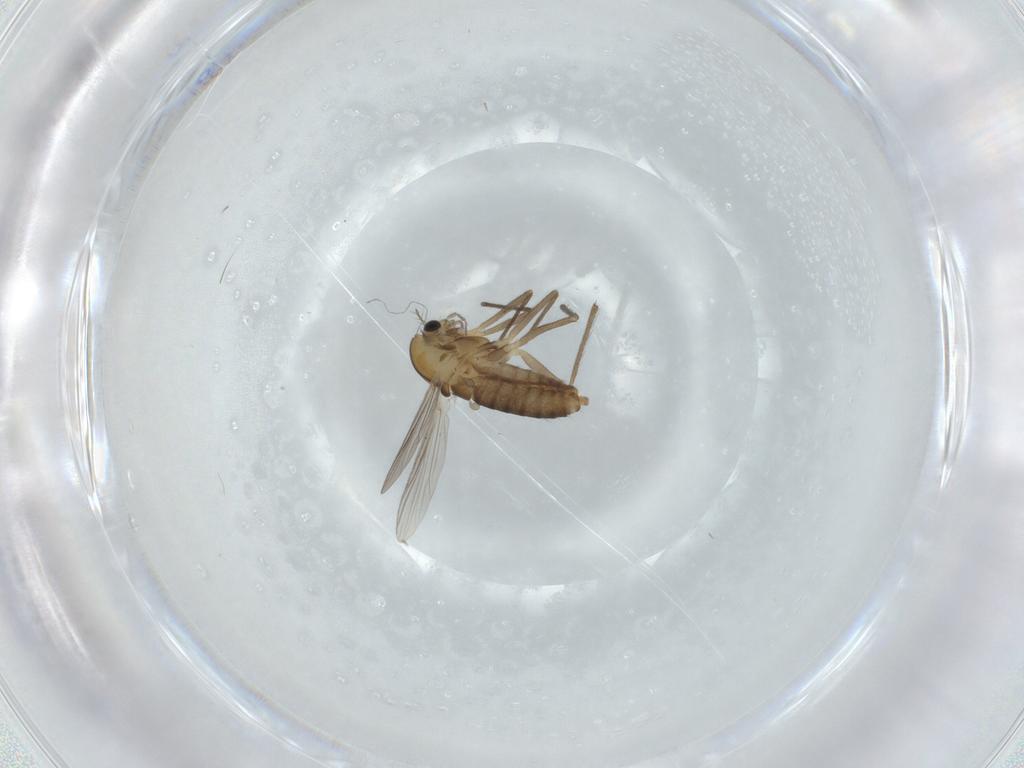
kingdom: Animalia
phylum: Arthropoda
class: Insecta
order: Diptera
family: Chironomidae
